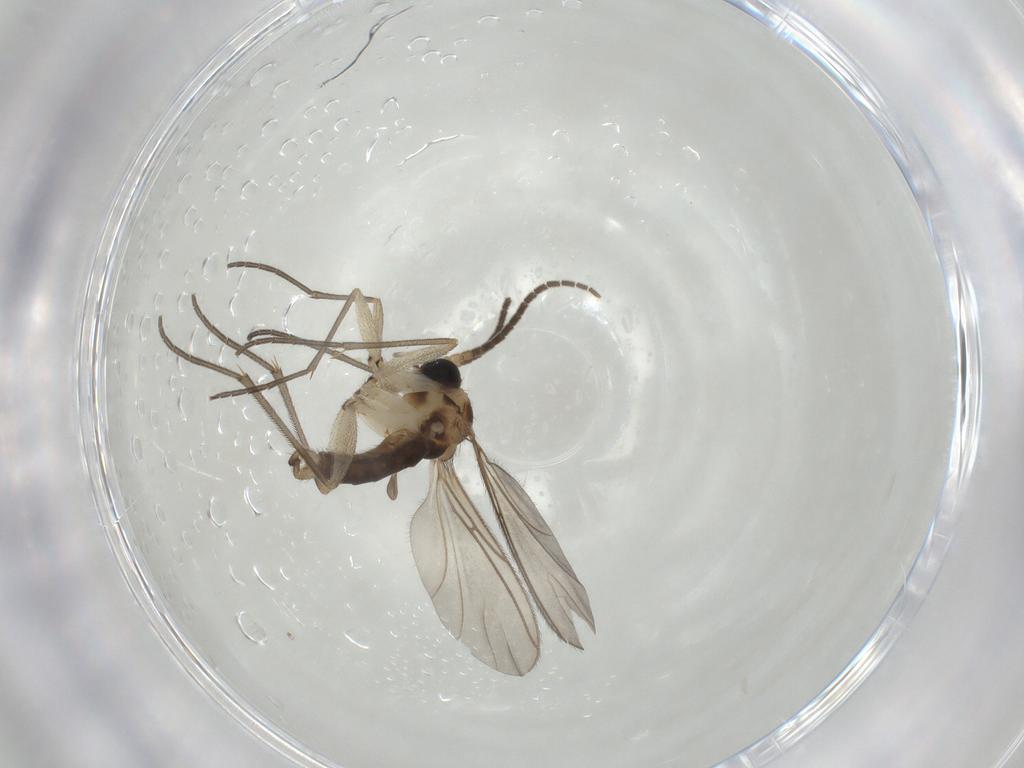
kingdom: Animalia
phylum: Arthropoda
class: Insecta
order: Diptera
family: Sciaridae
